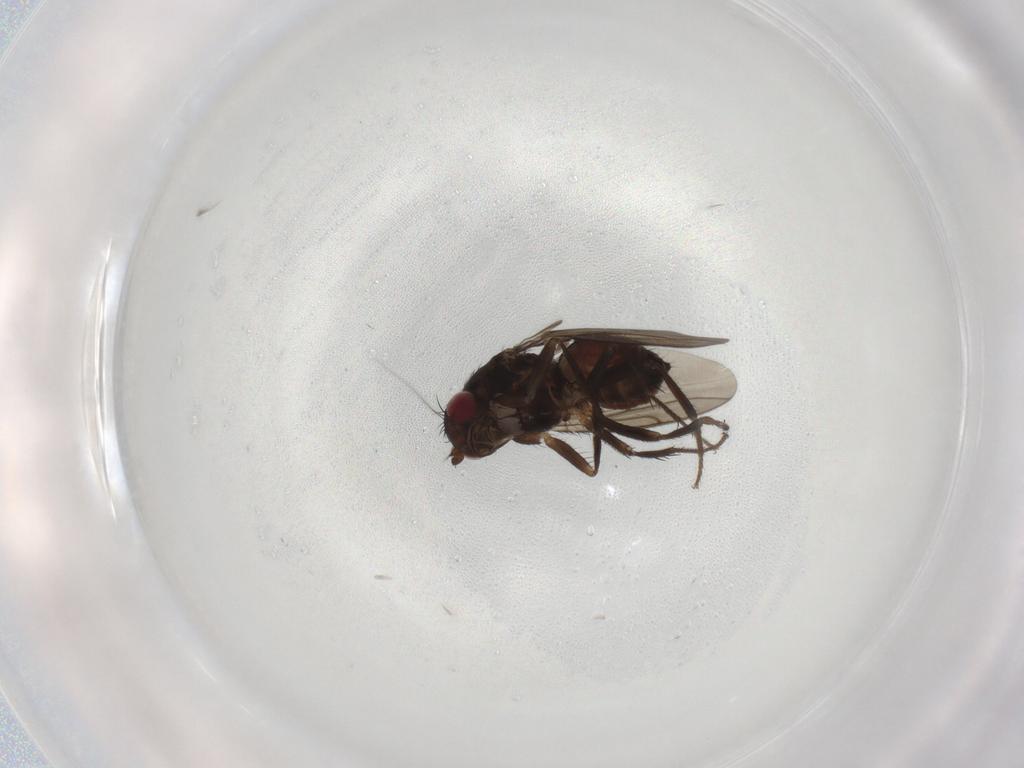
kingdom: Animalia
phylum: Arthropoda
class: Insecta
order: Diptera
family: Sphaeroceridae
